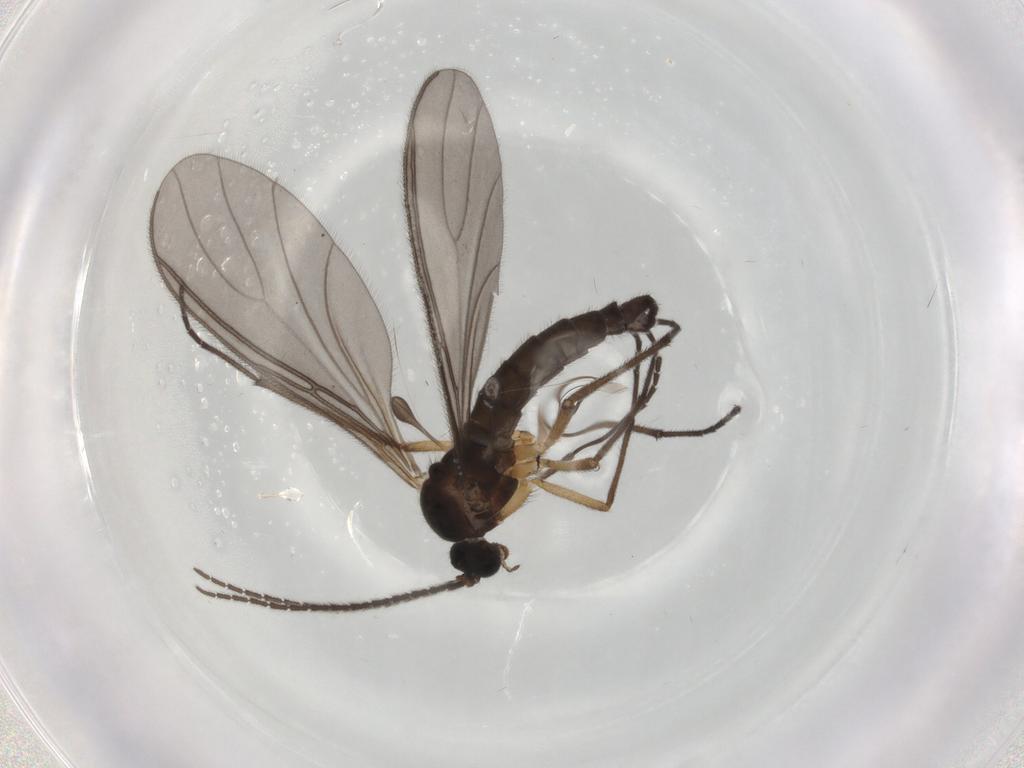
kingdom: Animalia
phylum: Arthropoda
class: Insecta
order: Diptera
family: Sciaridae
